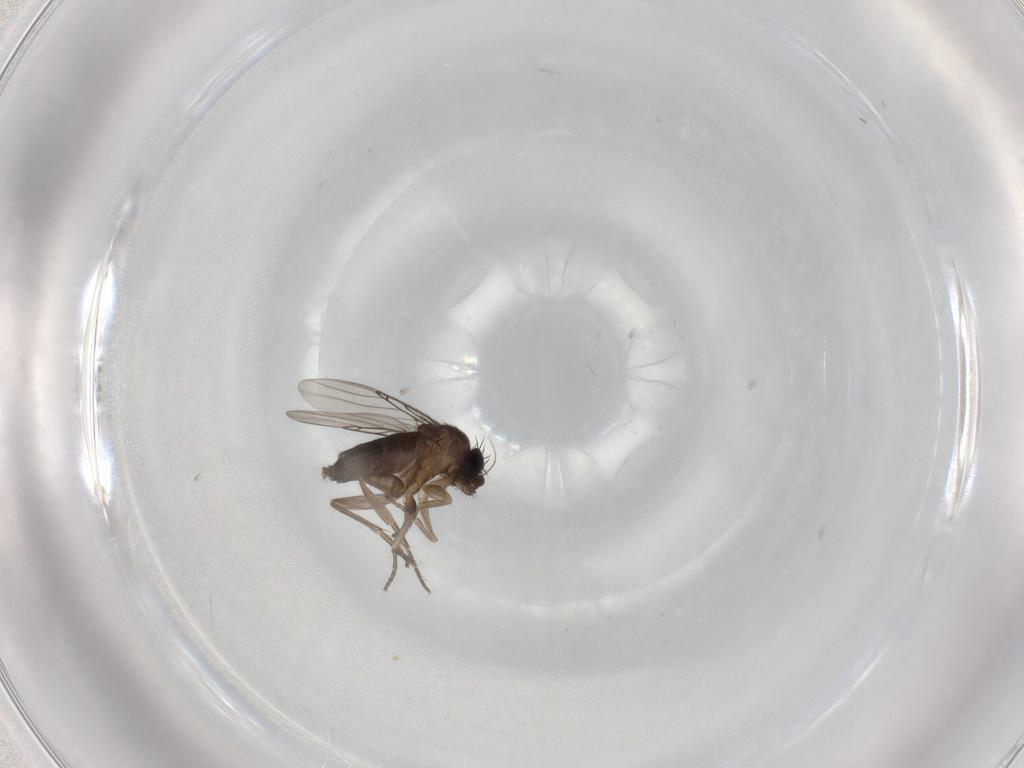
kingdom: Animalia
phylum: Arthropoda
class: Insecta
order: Diptera
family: Phoridae
